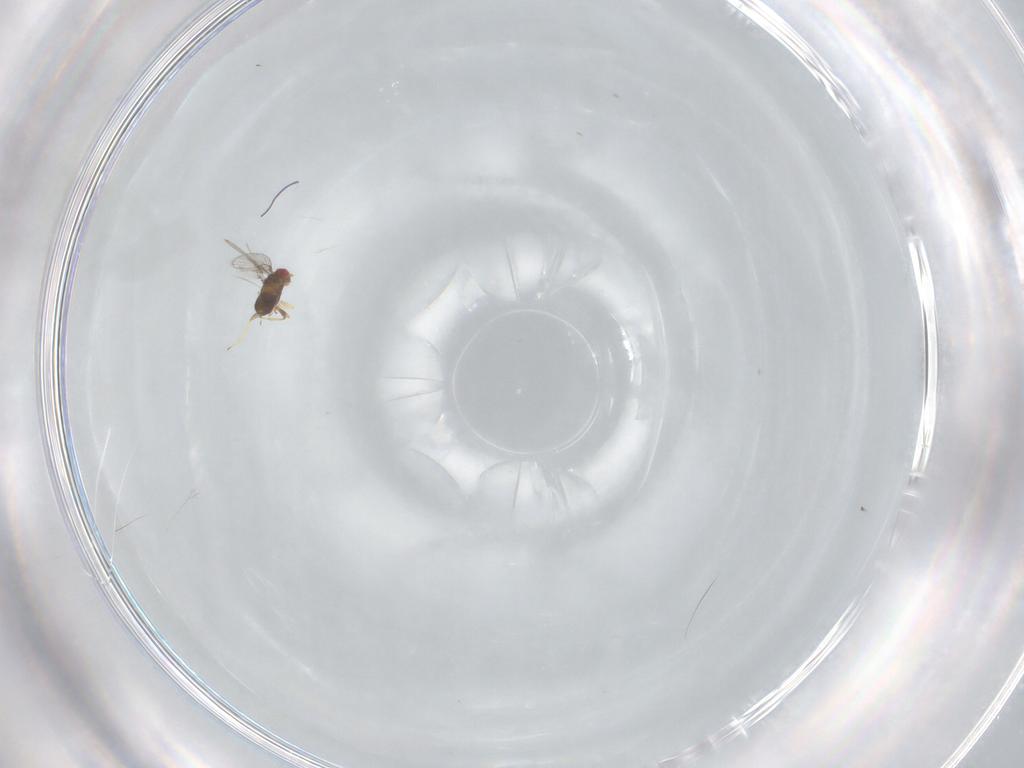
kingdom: Animalia
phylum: Arthropoda
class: Insecta
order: Hymenoptera
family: Trichogrammatidae
